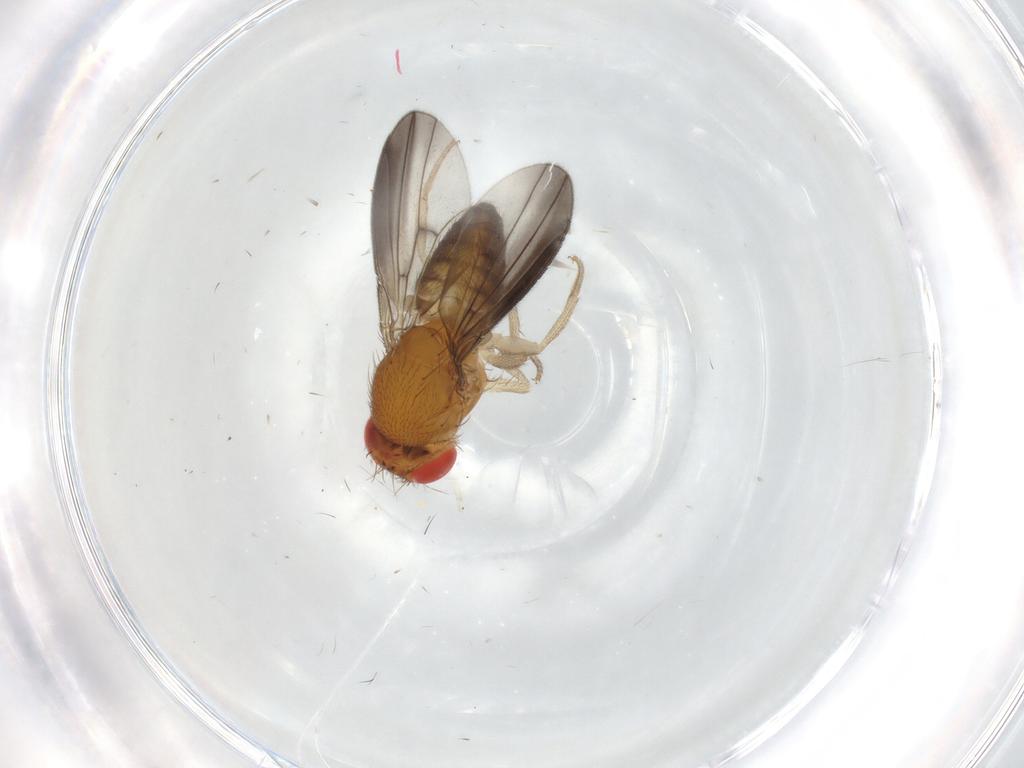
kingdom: Animalia
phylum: Arthropoda
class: Insecta
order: Diptera
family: Drosophilidae
